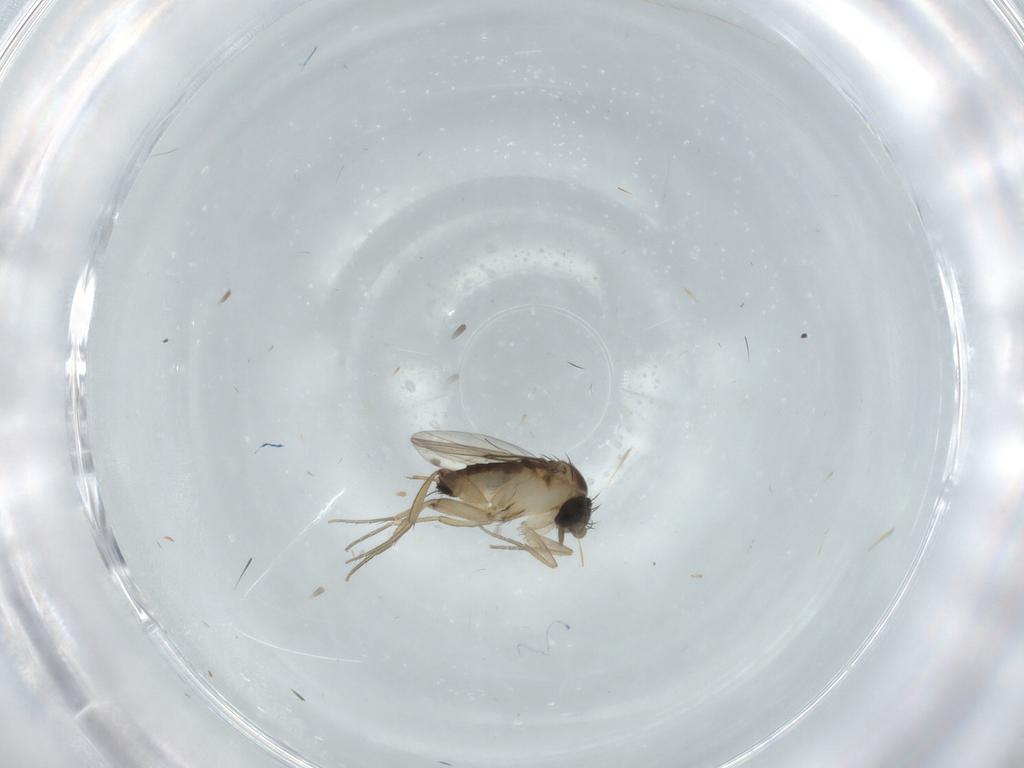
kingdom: Animalia
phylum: Arthropoda
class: Insecta
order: Diptera
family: Phoridae
